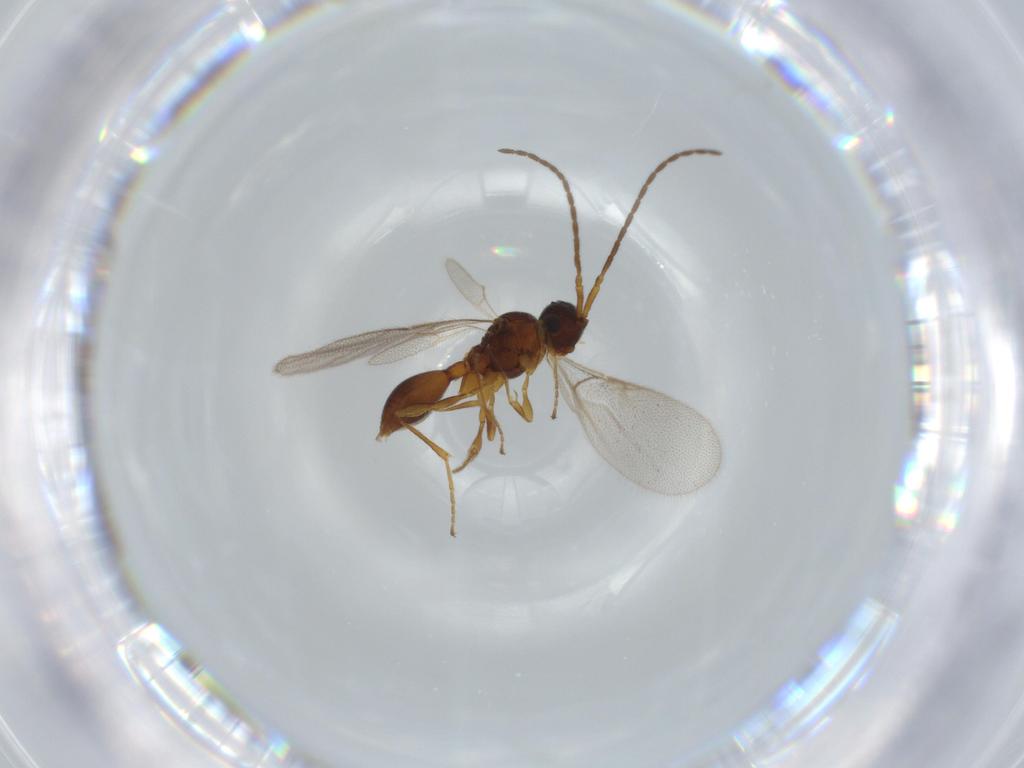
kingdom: Animalia
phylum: Arthropoda
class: Insecta
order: Hymenoptera
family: Diapriidae
